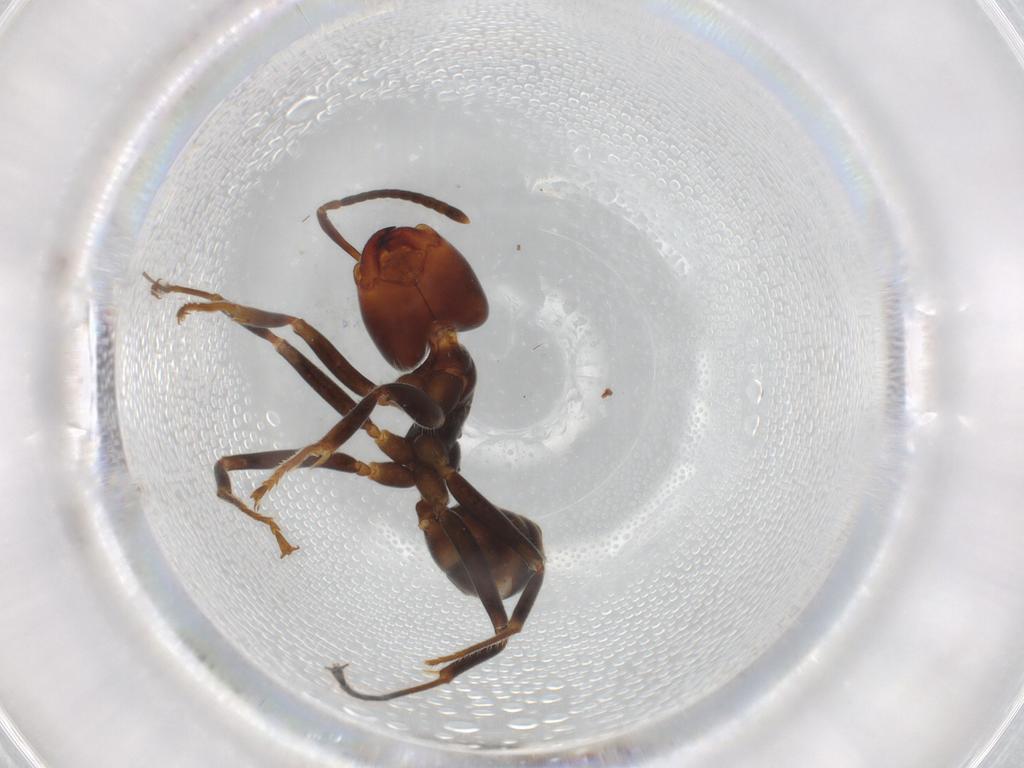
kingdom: Animalia
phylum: Arthropoda
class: Insecta
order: Hymenoptera
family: Formicidae
